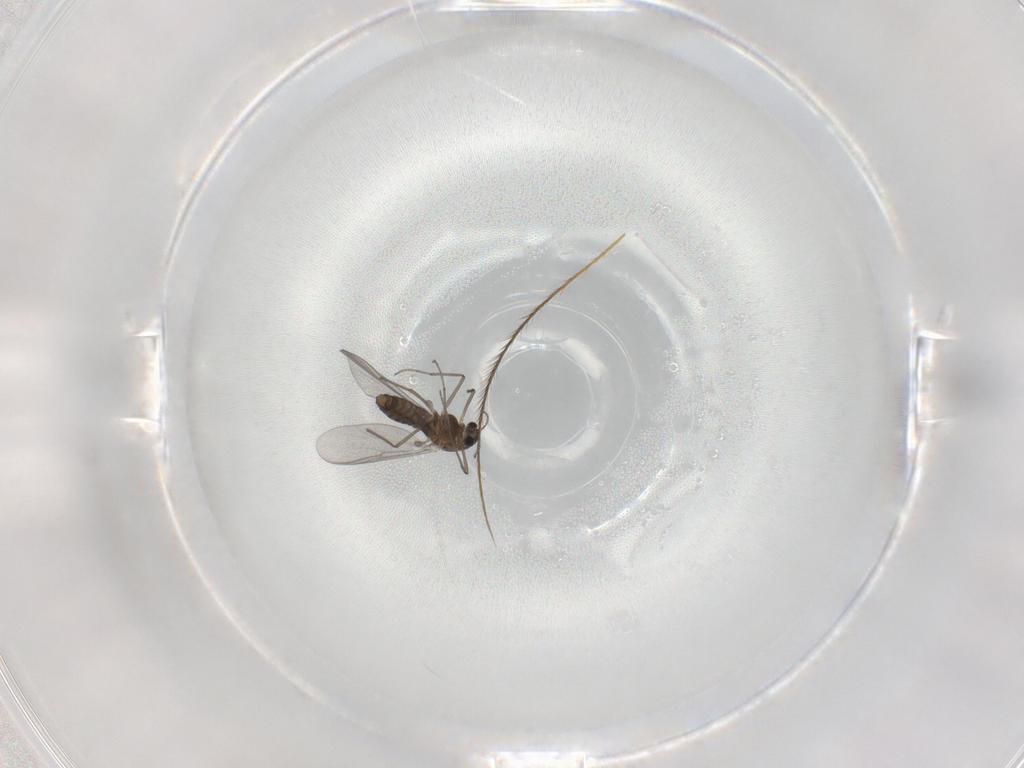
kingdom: Animalia
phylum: Arthropoda
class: Insecta
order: Diptera
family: Chironomidae
